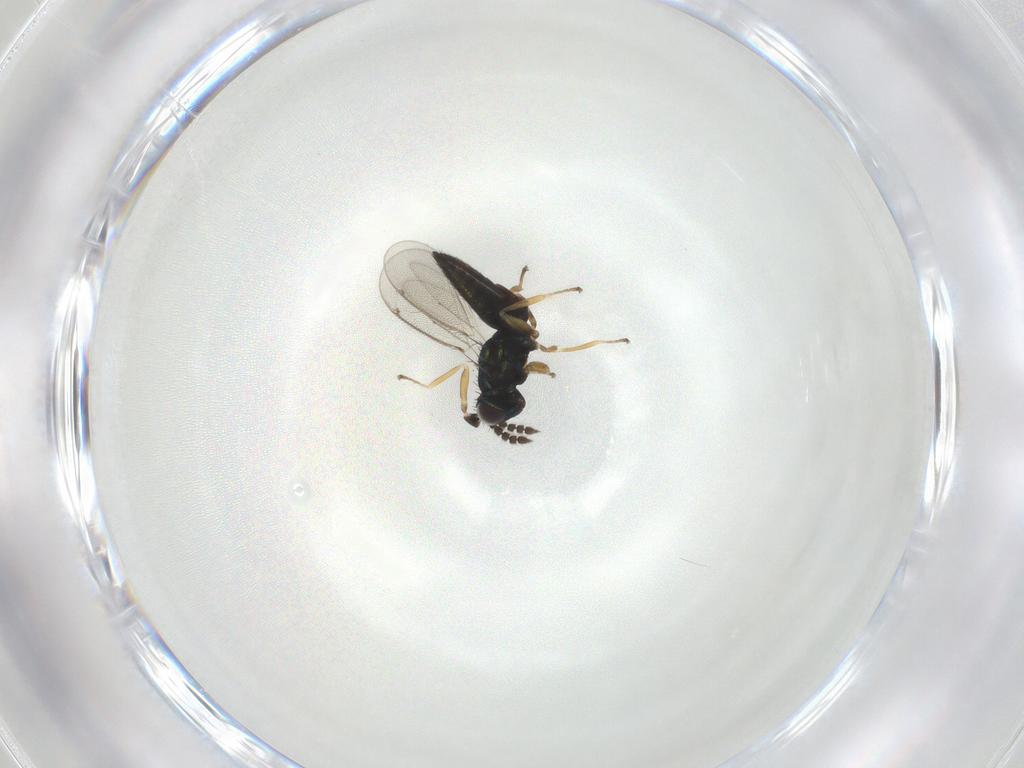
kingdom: Animalia
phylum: Arthropoda
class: Insecta
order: Hymenoptera
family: Eulophidae
